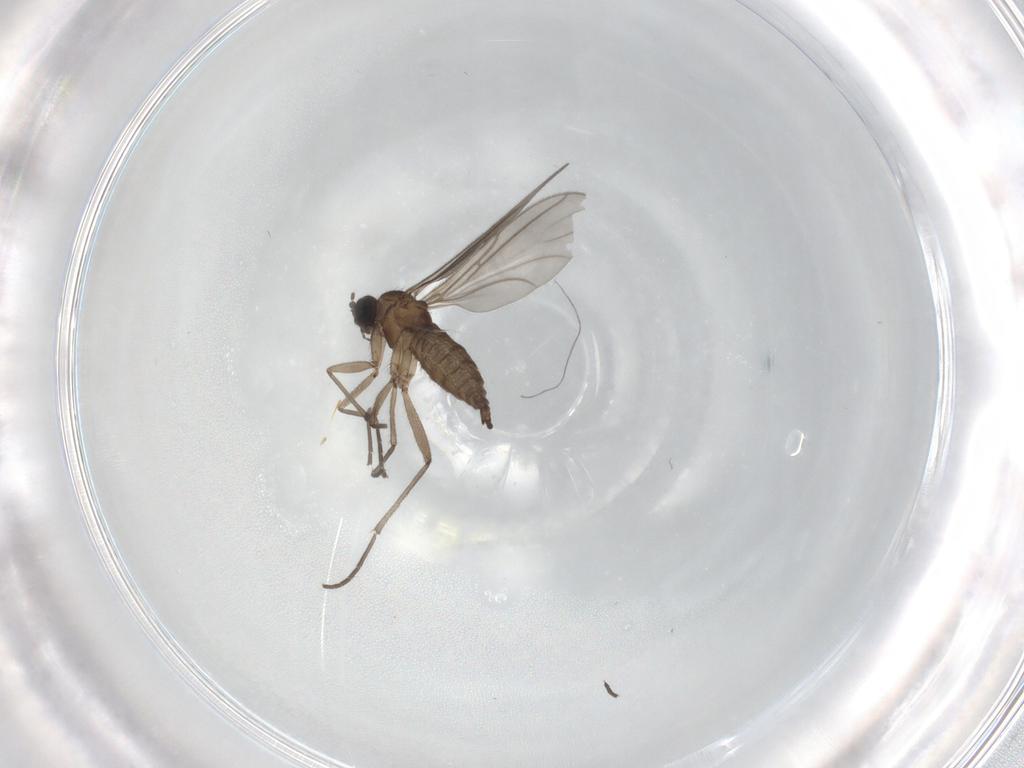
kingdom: Animalia
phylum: Arthropoda
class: Insecta
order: Diptera
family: Sciaridae
